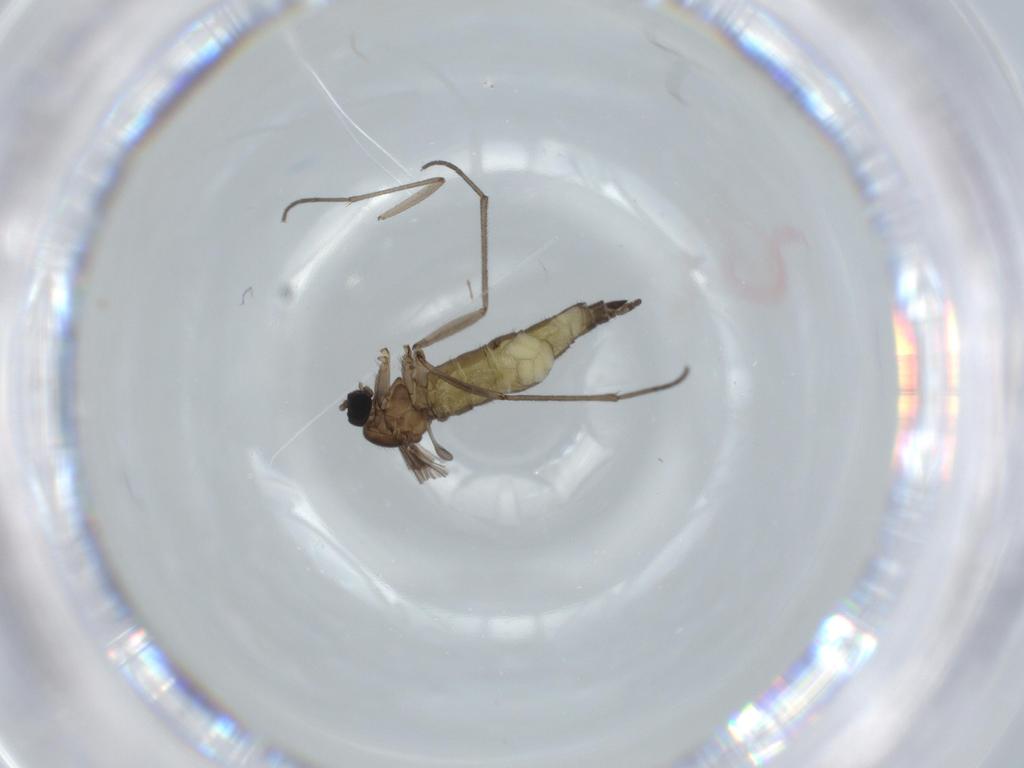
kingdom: Animalia
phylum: Arthropoda
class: Insecta
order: Diptera
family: Sciaridae
